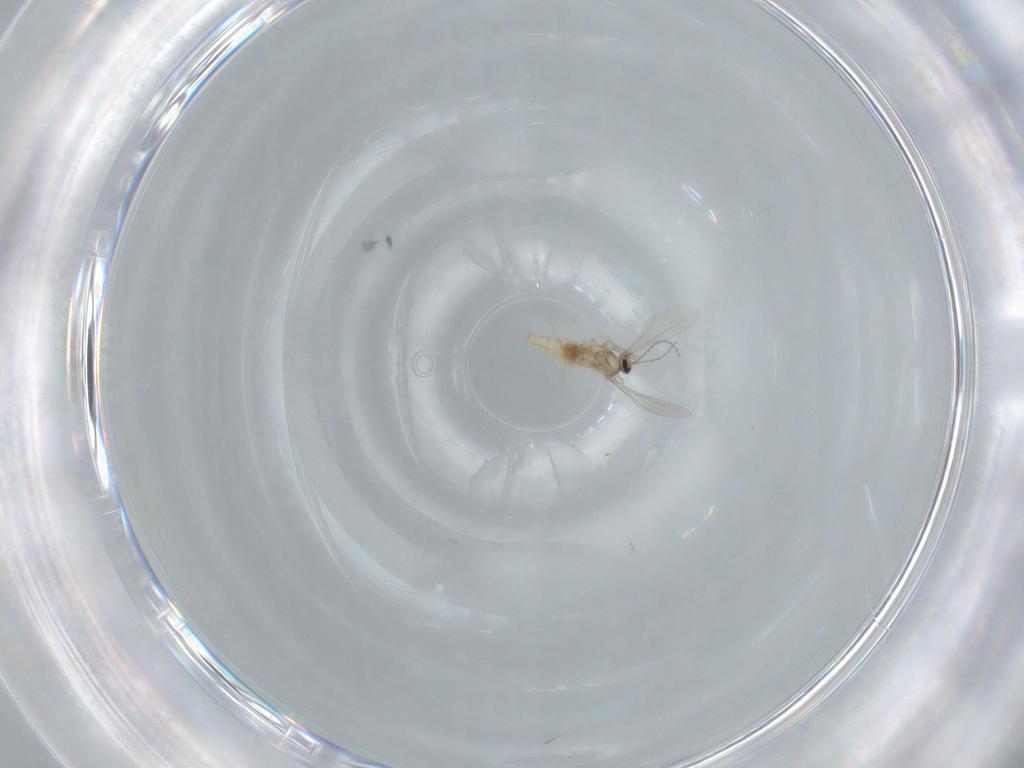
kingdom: Animalia
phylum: Arthropoda
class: Insecta
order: Diptera
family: Cecidomyiidae
